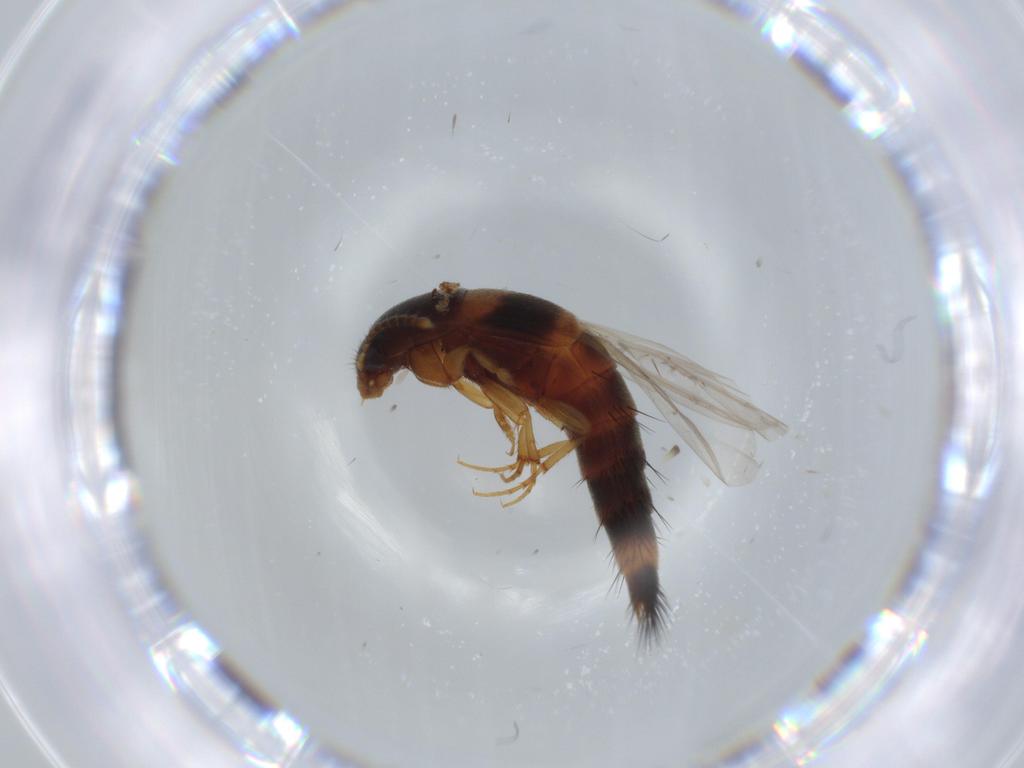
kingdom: Animalia
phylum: Arthropoda
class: Insecta
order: Coleoptera
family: Staphylinidae
